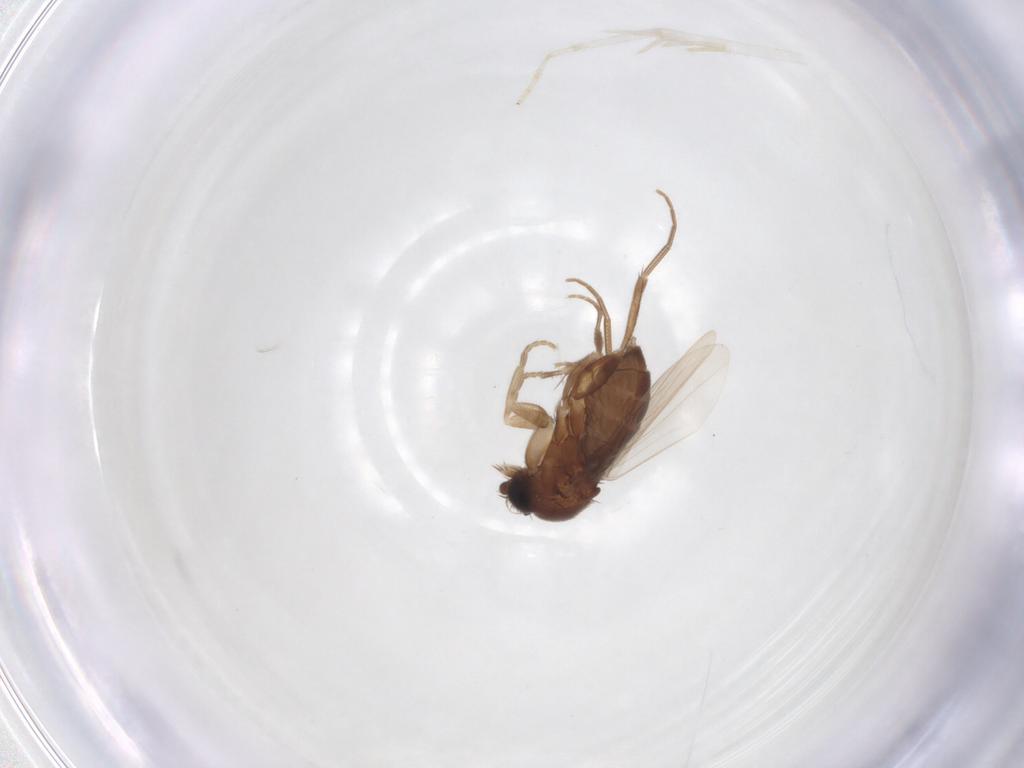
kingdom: Animalia
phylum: Arthropoda
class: Insecta
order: Diptera
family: Phoridae
